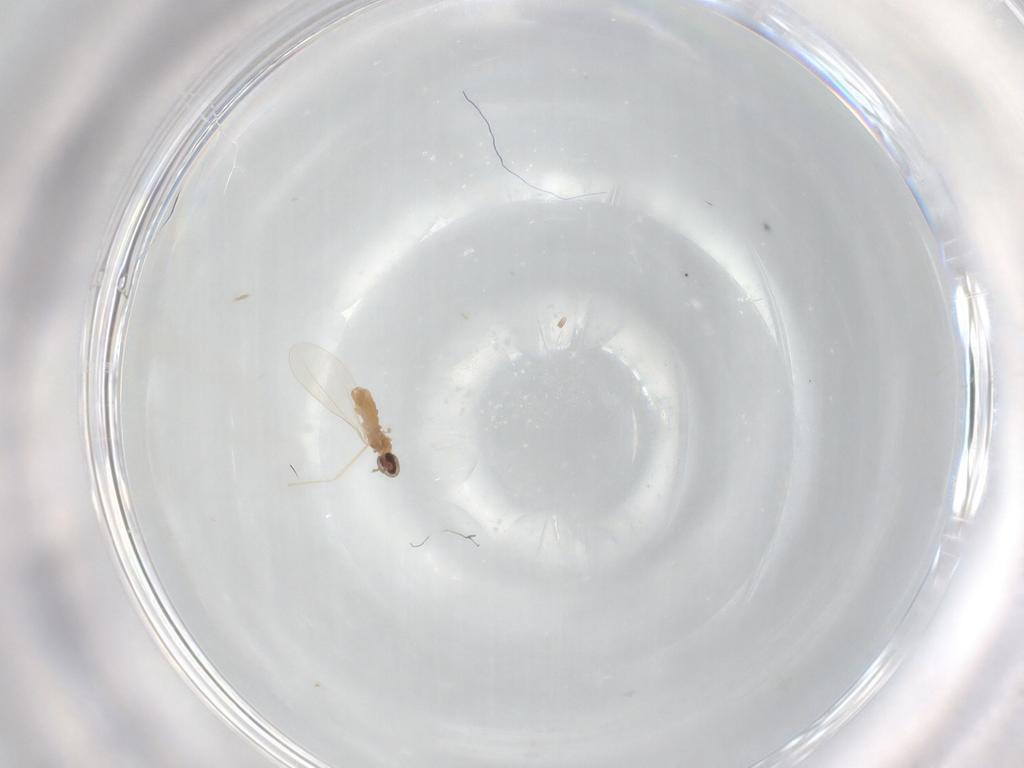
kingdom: Animalia
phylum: Arthropoda
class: Insecta
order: Diptera
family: Cecidomyiidae
